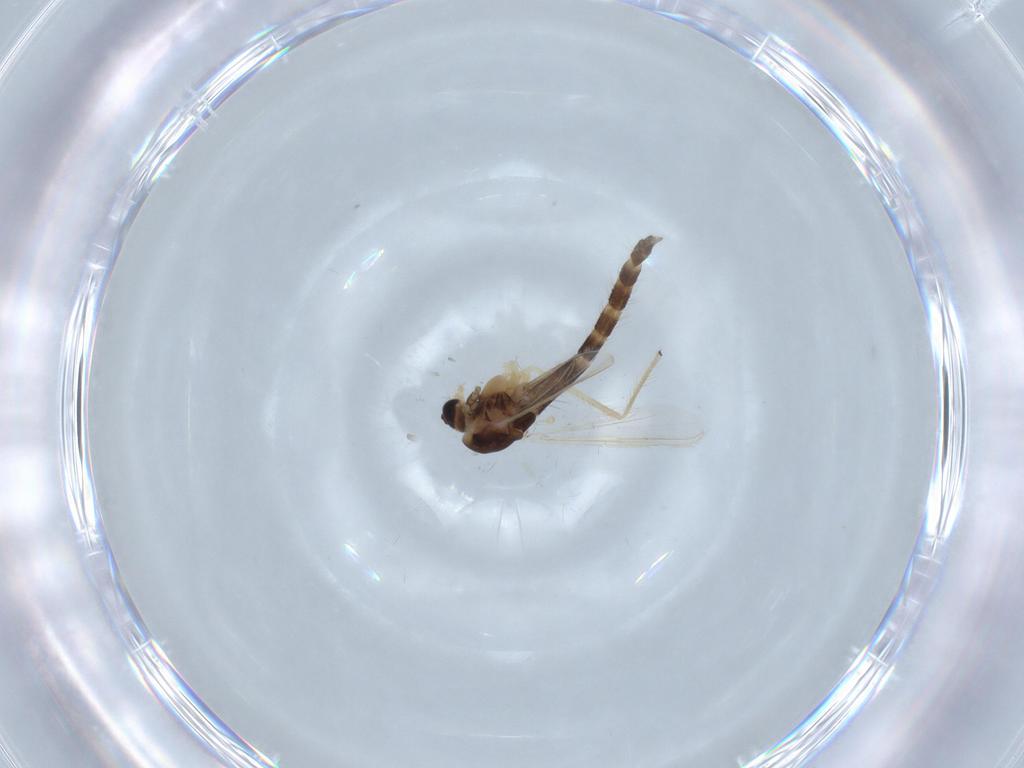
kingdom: Animalia
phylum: Arthropoda
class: Insecta
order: Diptera
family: Chironomidae
